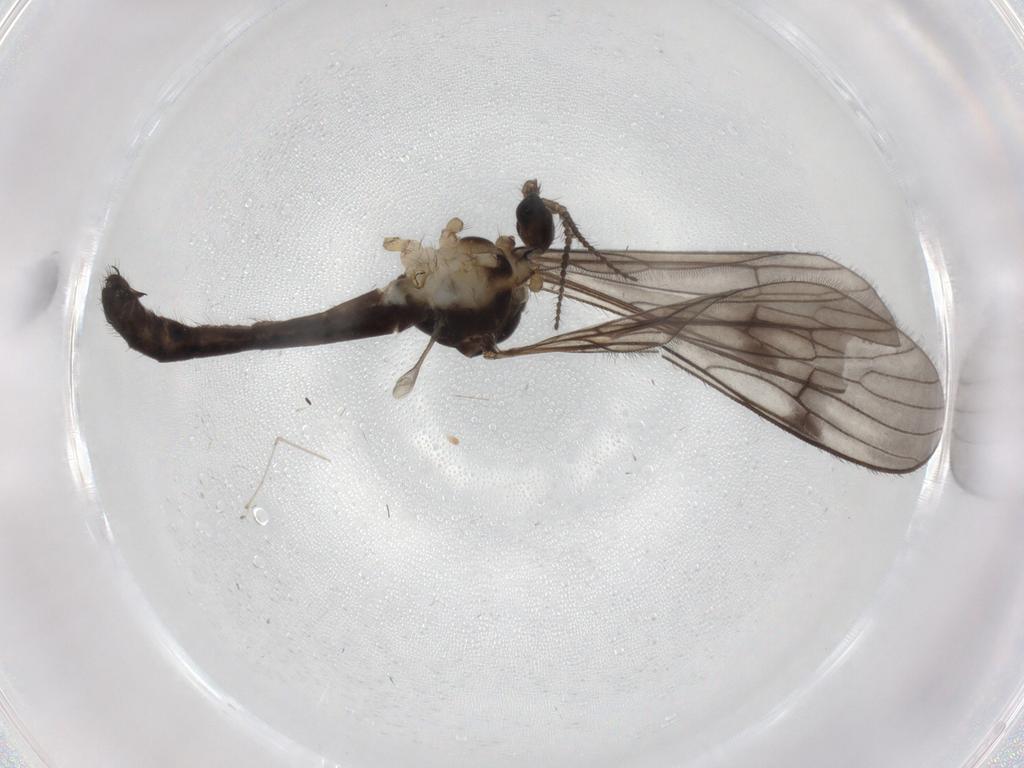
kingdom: Animalia
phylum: Arthropoda
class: Insecta
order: Diptera
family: Limoniidae
